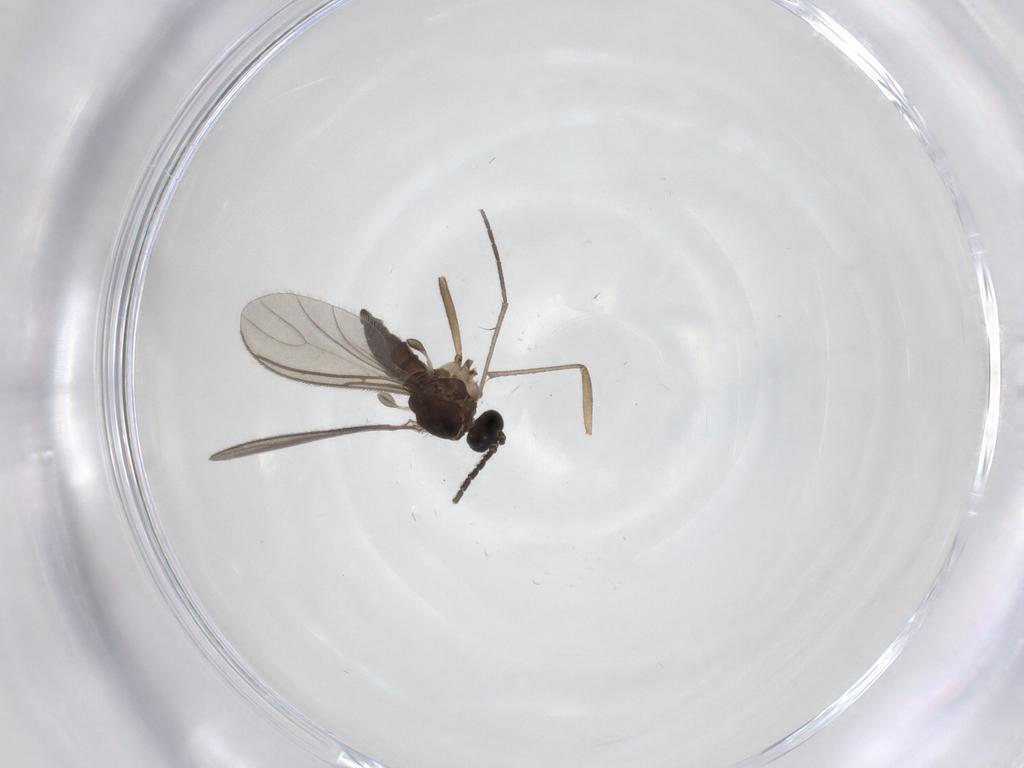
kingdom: Animalia
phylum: Arthropoda
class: Insecta
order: Diptera
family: Sciaridae
